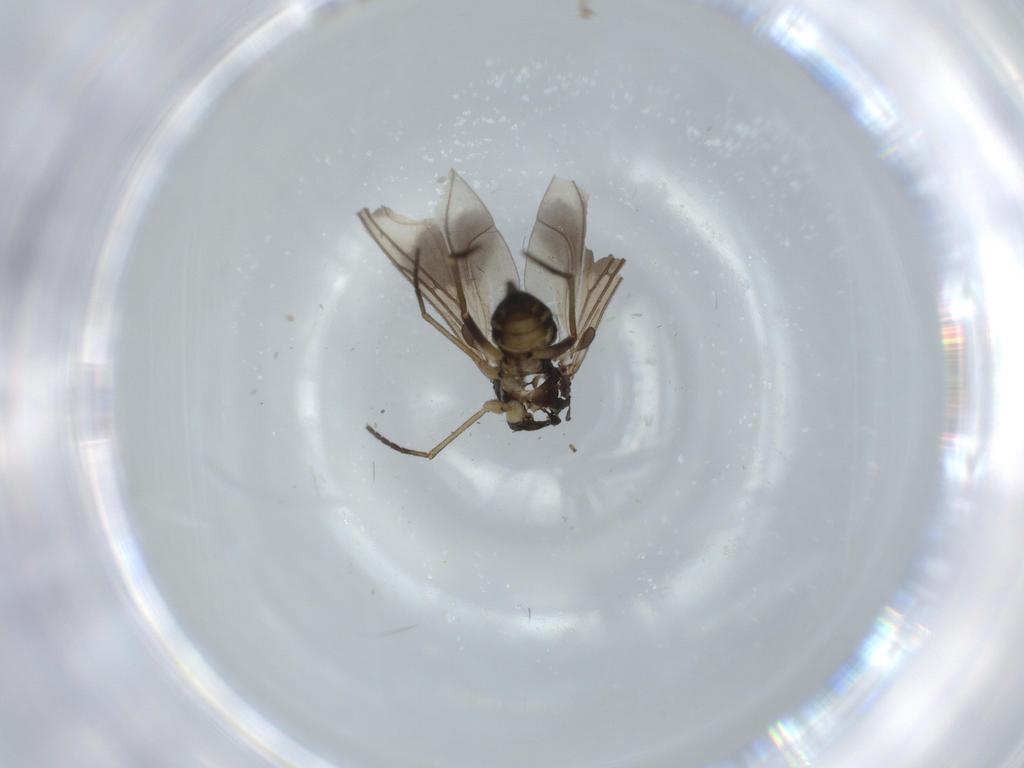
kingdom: Animalia
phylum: Arthropoda
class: Insecta
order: Diptera
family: Sciaridae
